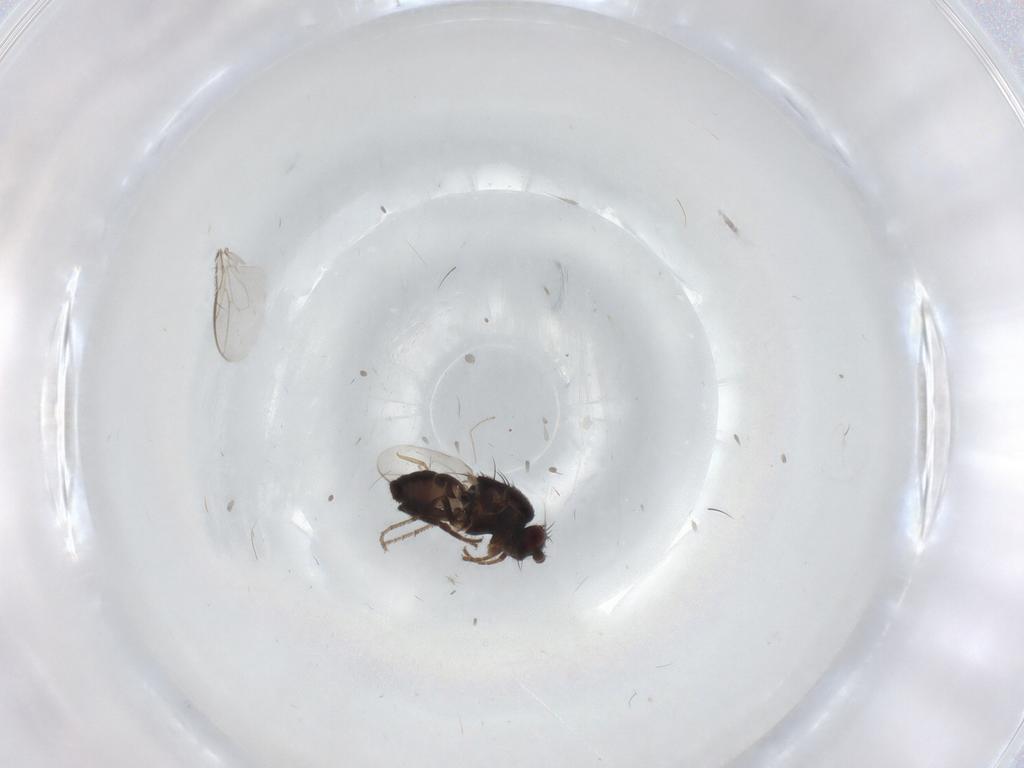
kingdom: Animalia
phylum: Arthropoda
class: Insecta
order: Diptera
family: Sphaeroceridae
